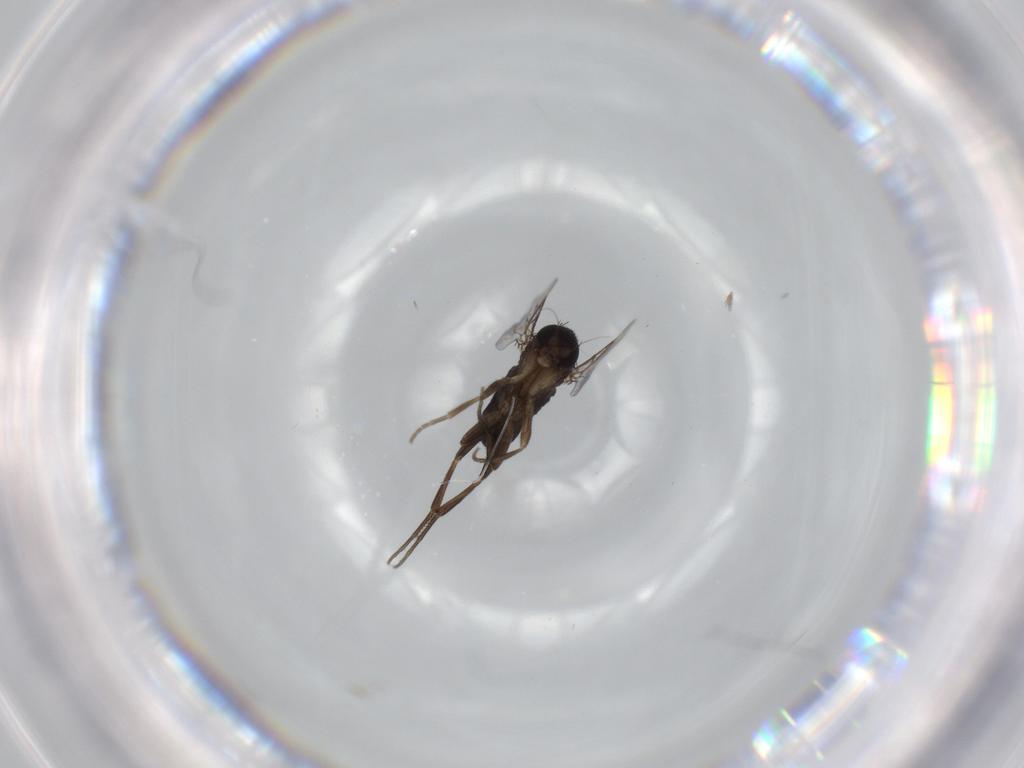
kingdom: Animalia
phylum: Arthropoda
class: Insecta
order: Diptera
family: Phoridae
